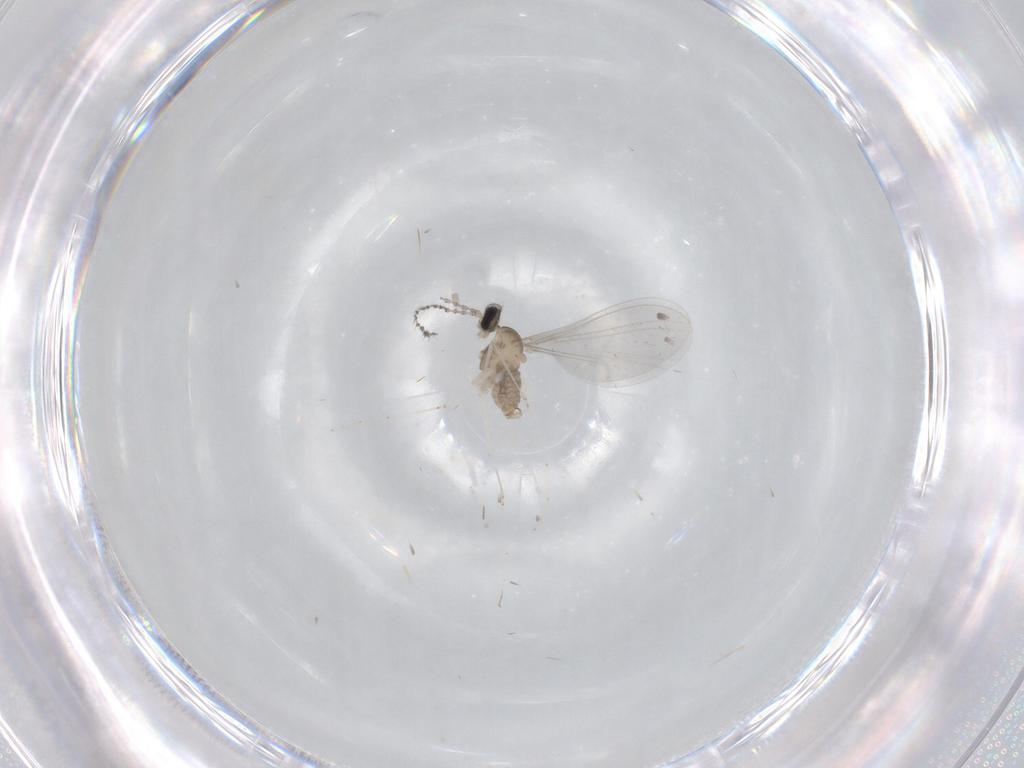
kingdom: Animalia
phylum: Arthropoda
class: Insecta
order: Diptera
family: Cecidomyiidae
